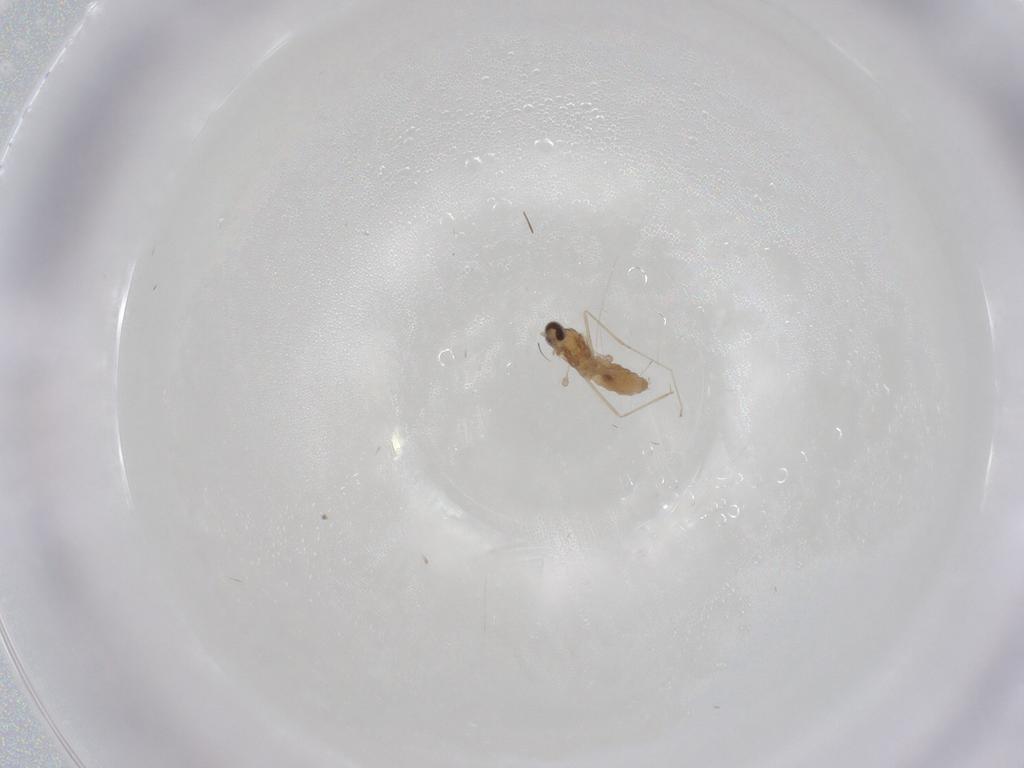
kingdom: Animalia
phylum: Arthropoda
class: Insecta
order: Diptera
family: Cecidomyiidae
